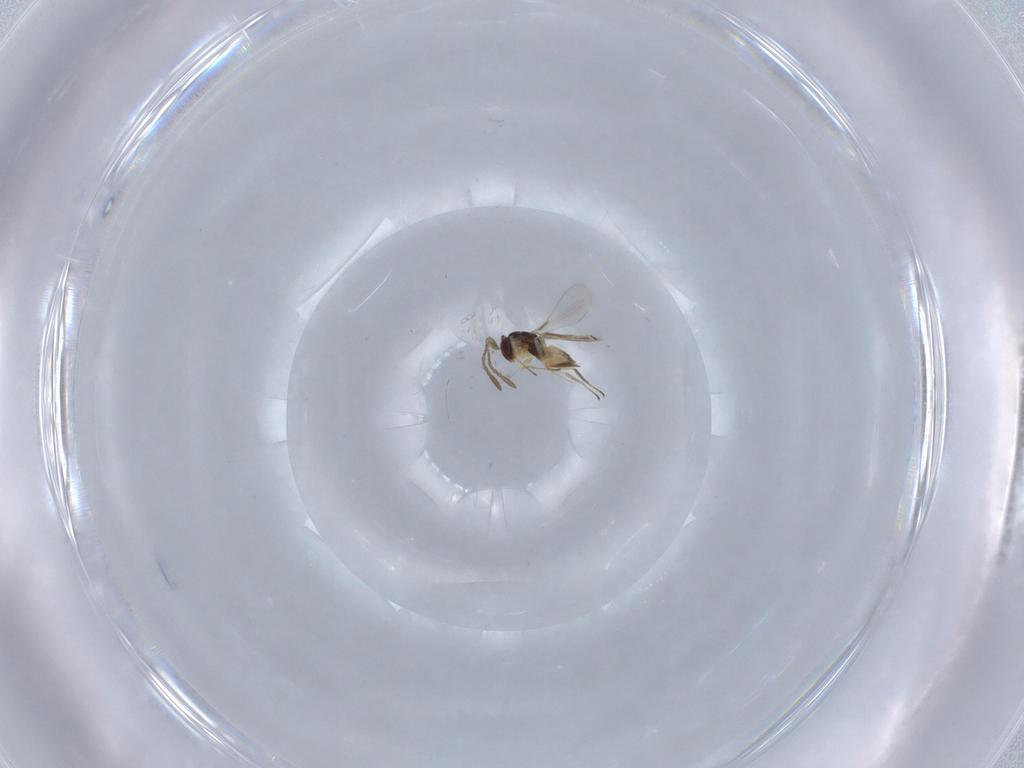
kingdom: Animalia
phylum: Arthropoda
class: Insecta
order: Hymenoptera
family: Mymaridae
